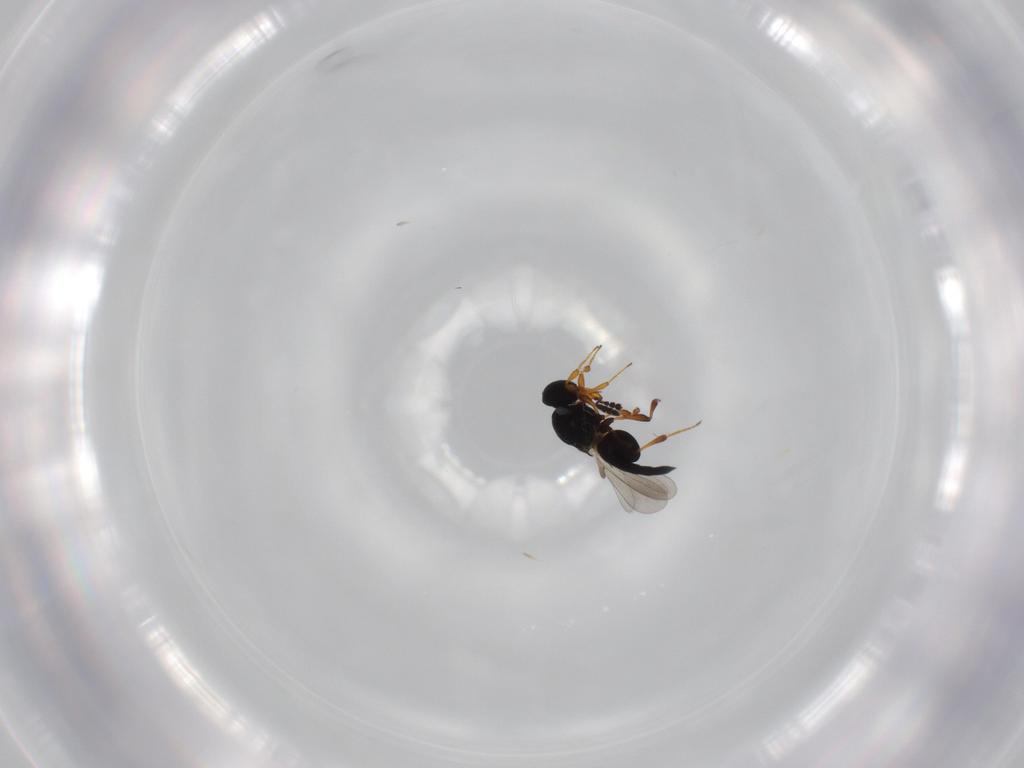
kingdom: Animalia
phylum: Arthropoda
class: Insecta
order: Hymenoptera
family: Platygastridae
